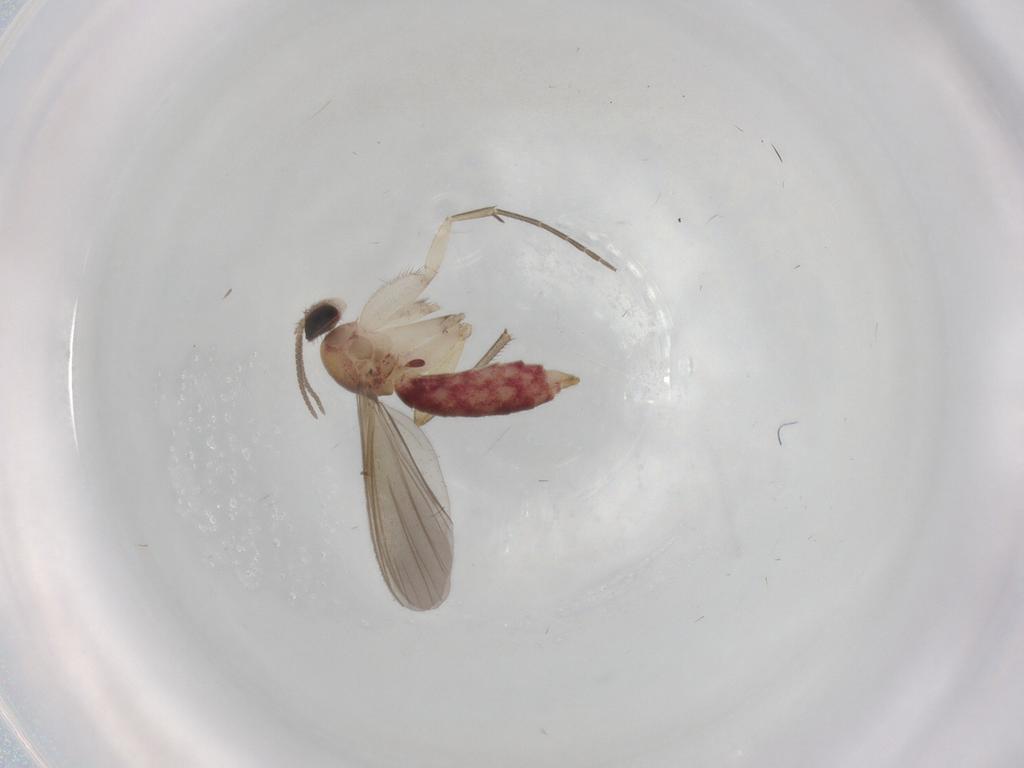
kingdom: Animalia
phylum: Arthropoda
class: Insecta
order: Diptera
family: Mycetophilidae
